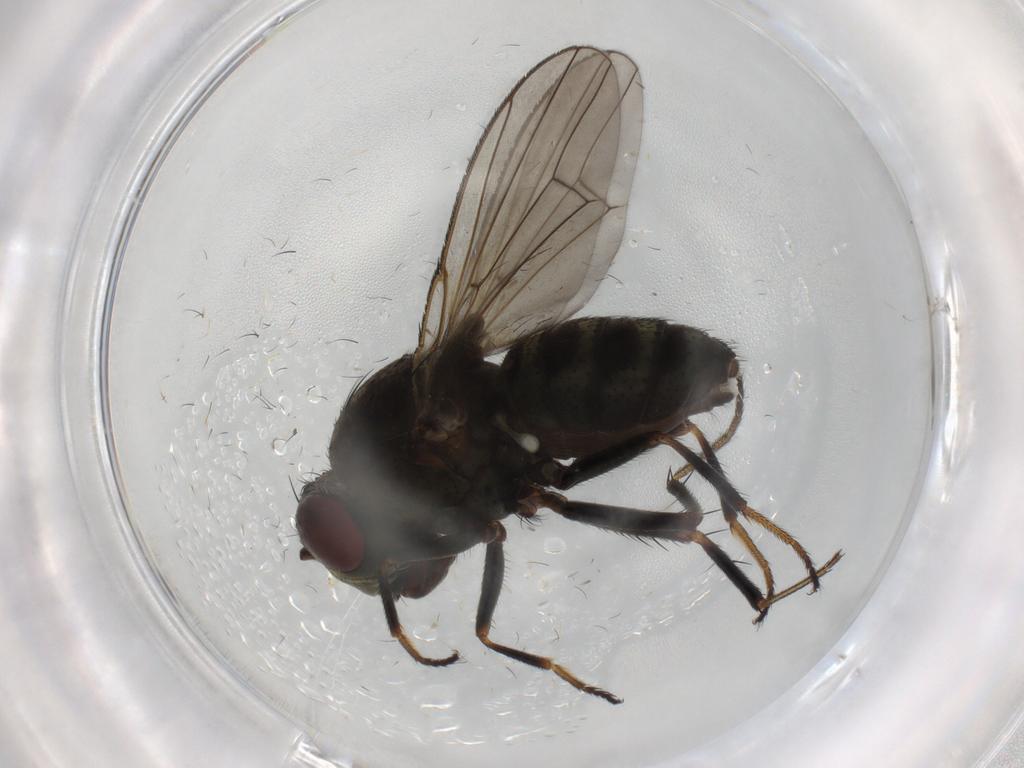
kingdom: Animalia
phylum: Arthropoda
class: Insecta
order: Diptera
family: Ephydridae
